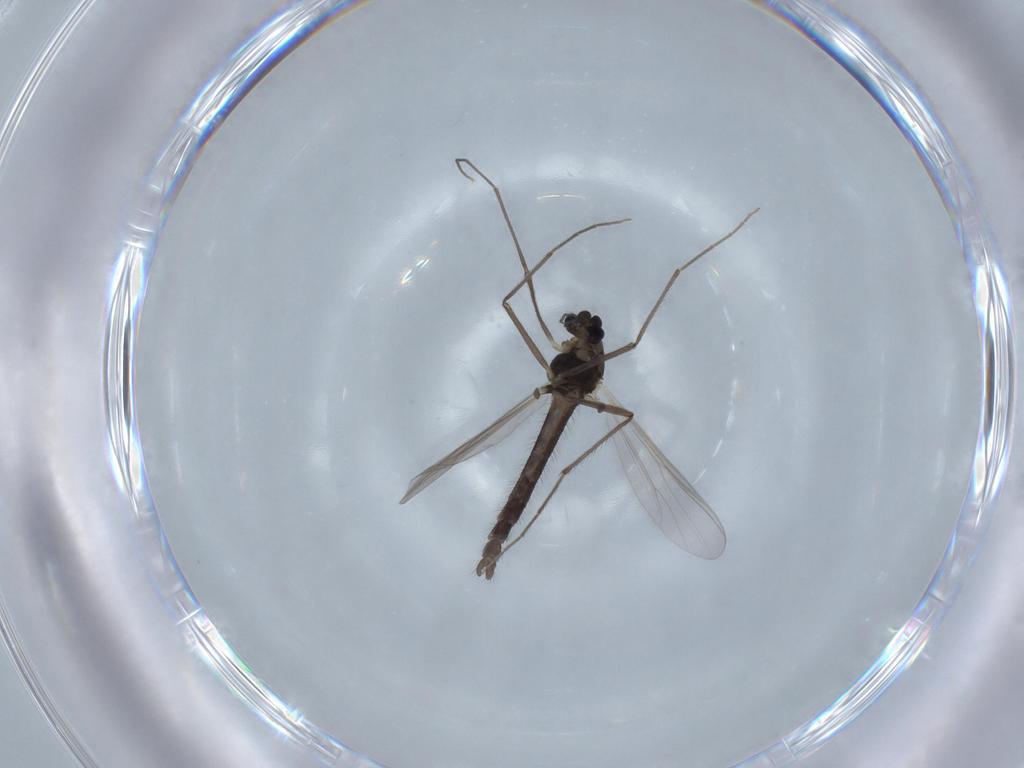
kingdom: Animalia
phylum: Arthropoda
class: Insecta
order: Diptera
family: Chironomidae
